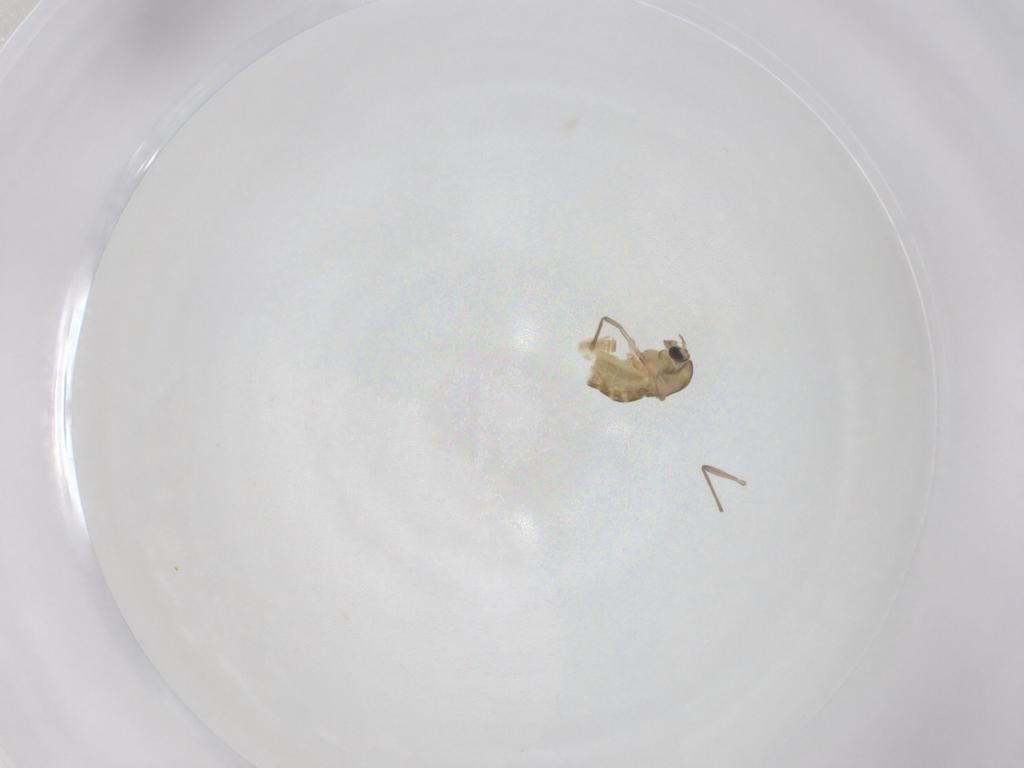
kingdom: Animalia
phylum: Arthropoda
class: Insecta
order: Diptera
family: Chironomidae
